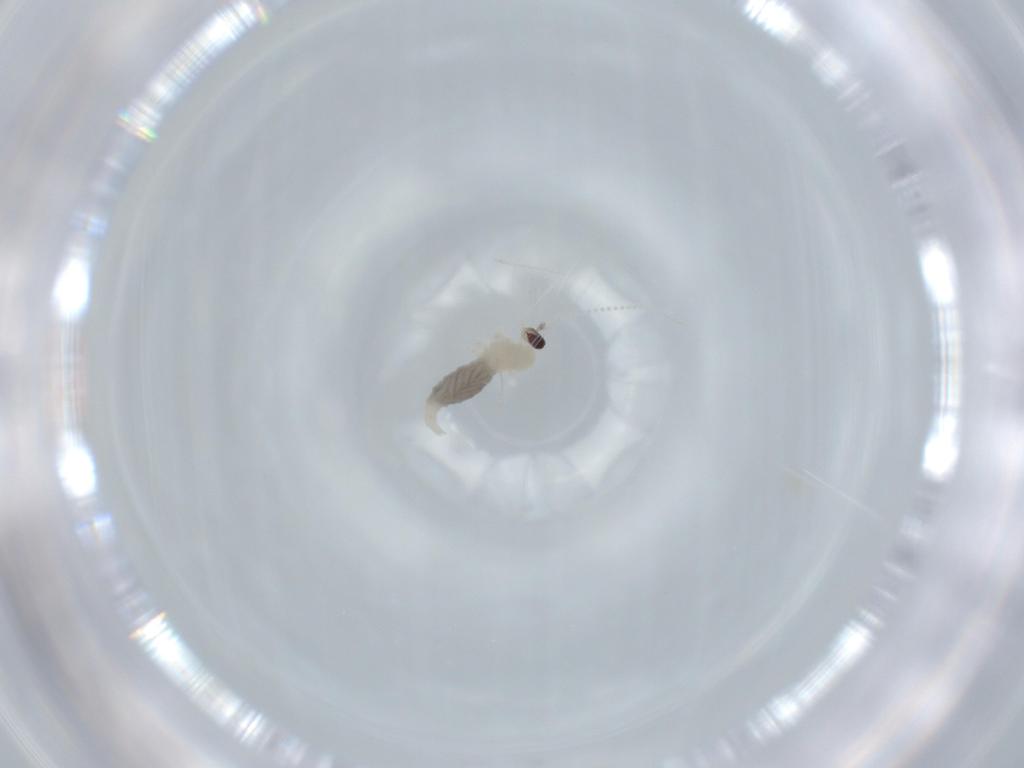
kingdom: Animalia
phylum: Arthropoda
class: Insecta
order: Diptera
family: Cecidomyiidae
